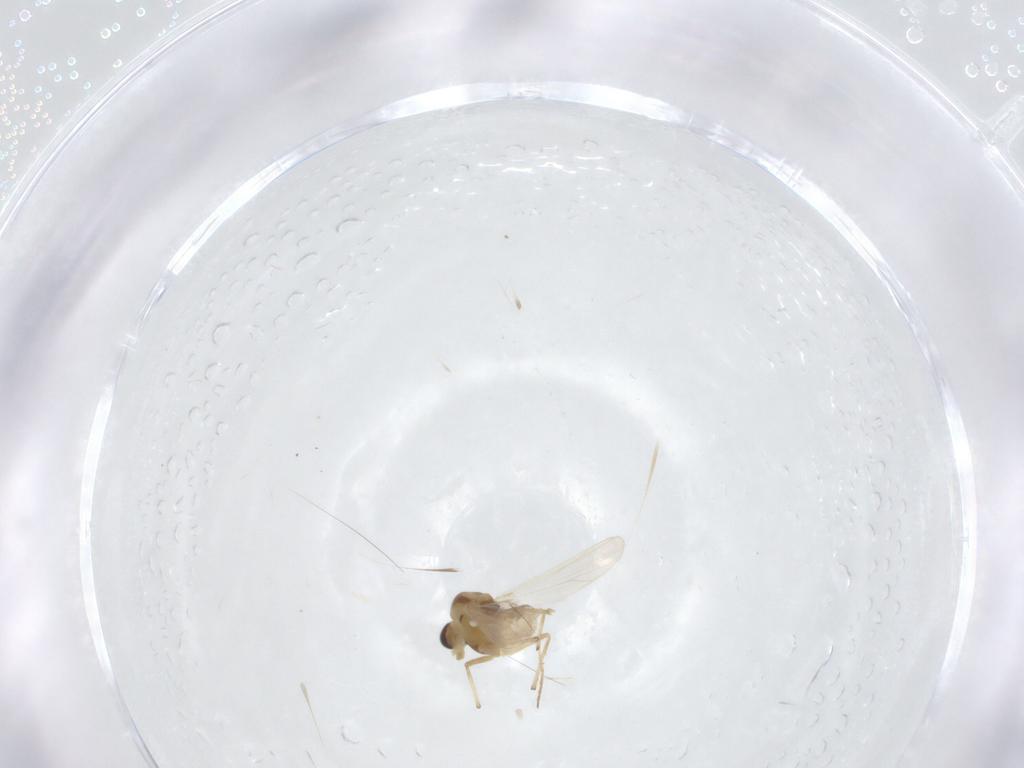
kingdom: Animalia
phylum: Arthropoda
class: Insecta
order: Diptera
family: Chironomidae
